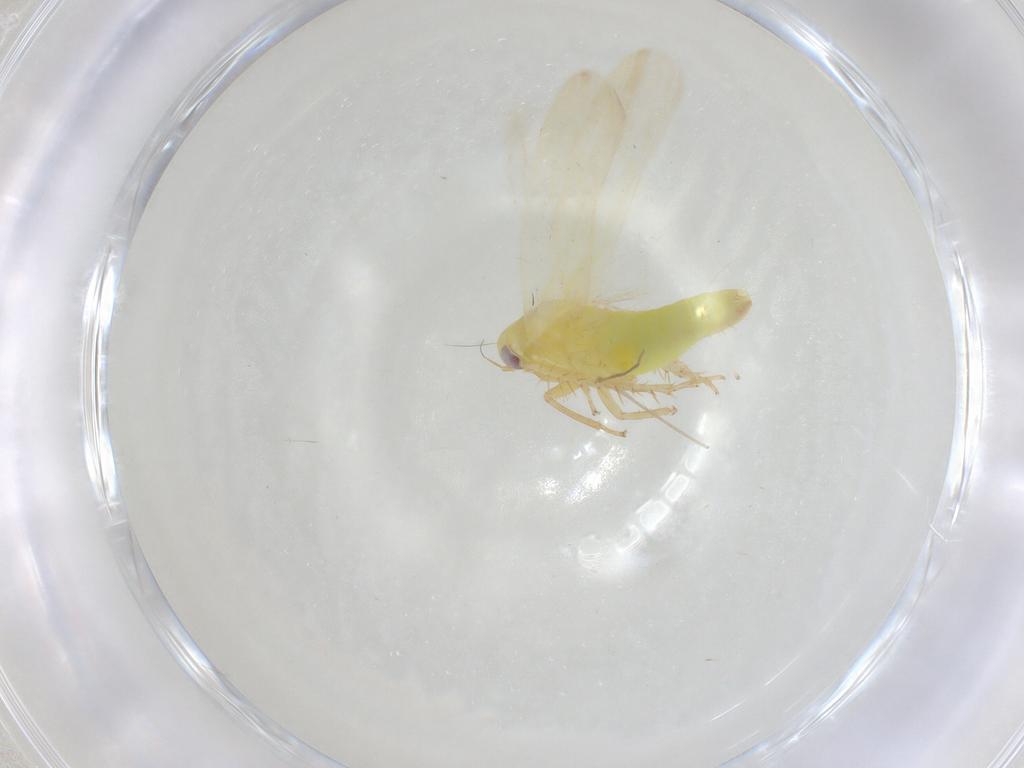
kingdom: Animalia
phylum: Arthropoda
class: Insecta
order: Hemiptera
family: Cicadellidae
